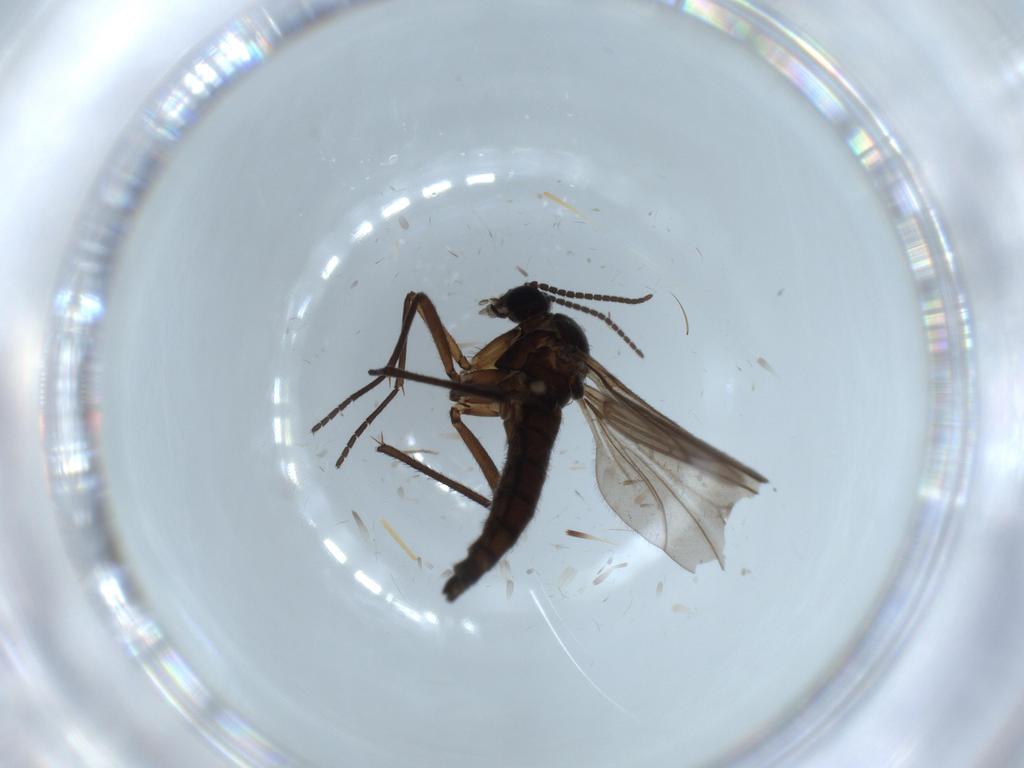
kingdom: Animalia
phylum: Arthropoda
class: Insecta
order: Diptera
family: Sciaridae
